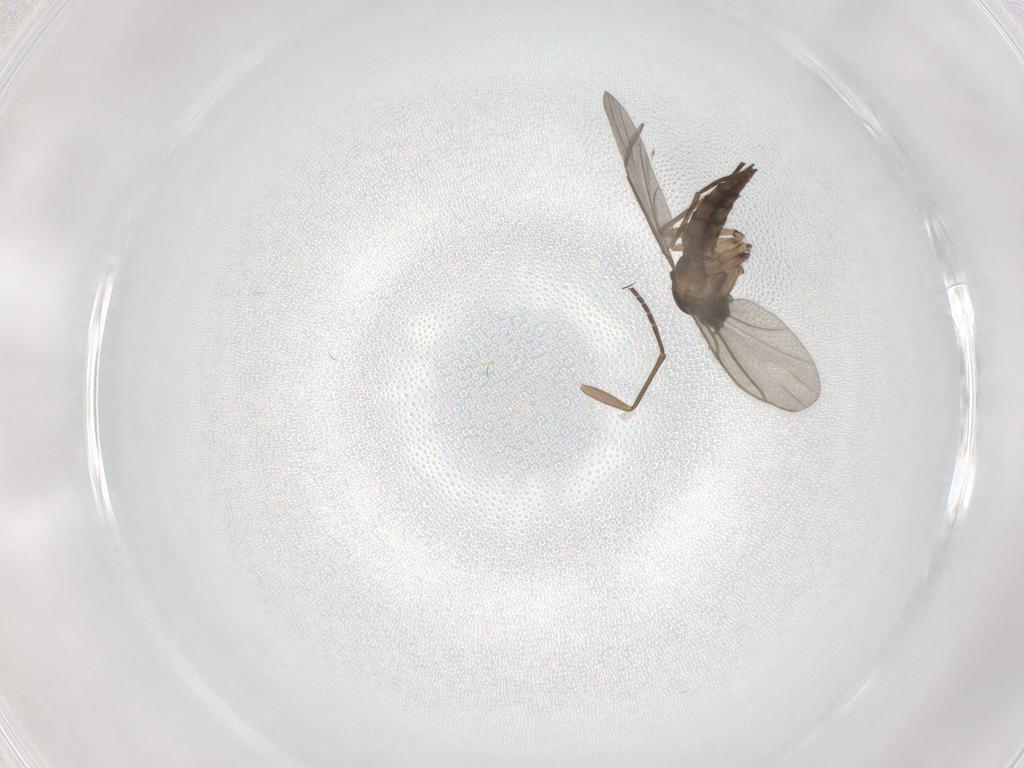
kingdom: Animalia
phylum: Arthropoda
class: Insecta
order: Diptera
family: Sciaridae
